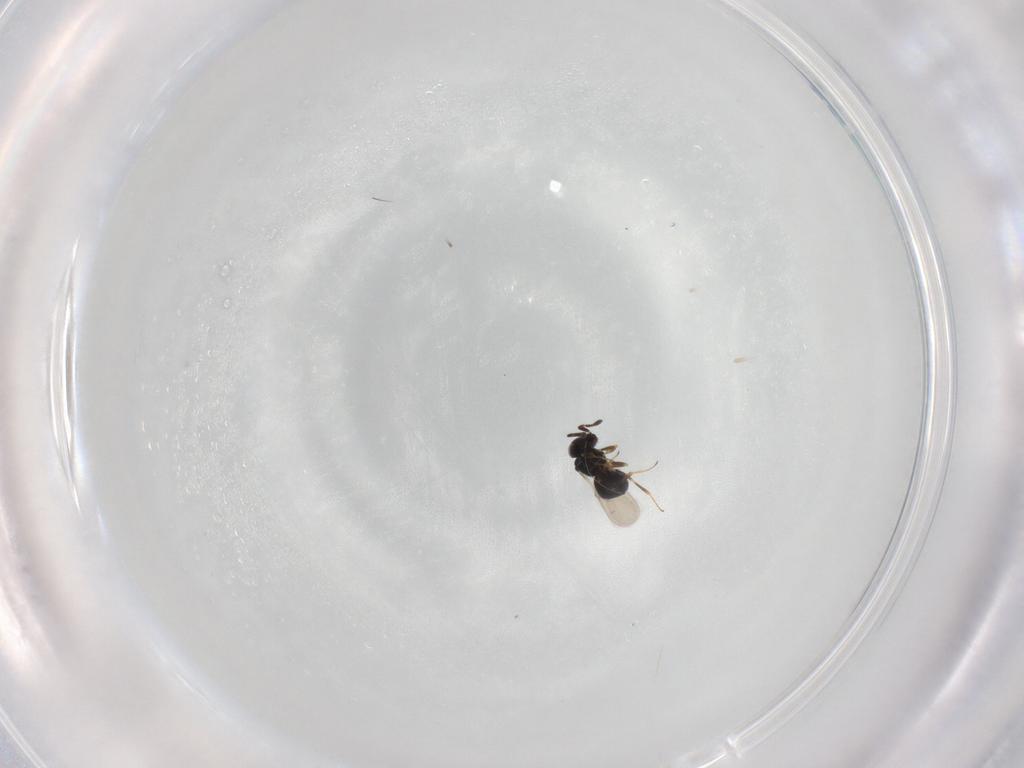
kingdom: Animalia
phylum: Arthropoda
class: Insecta
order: Hymenoptera
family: Scelionidae
